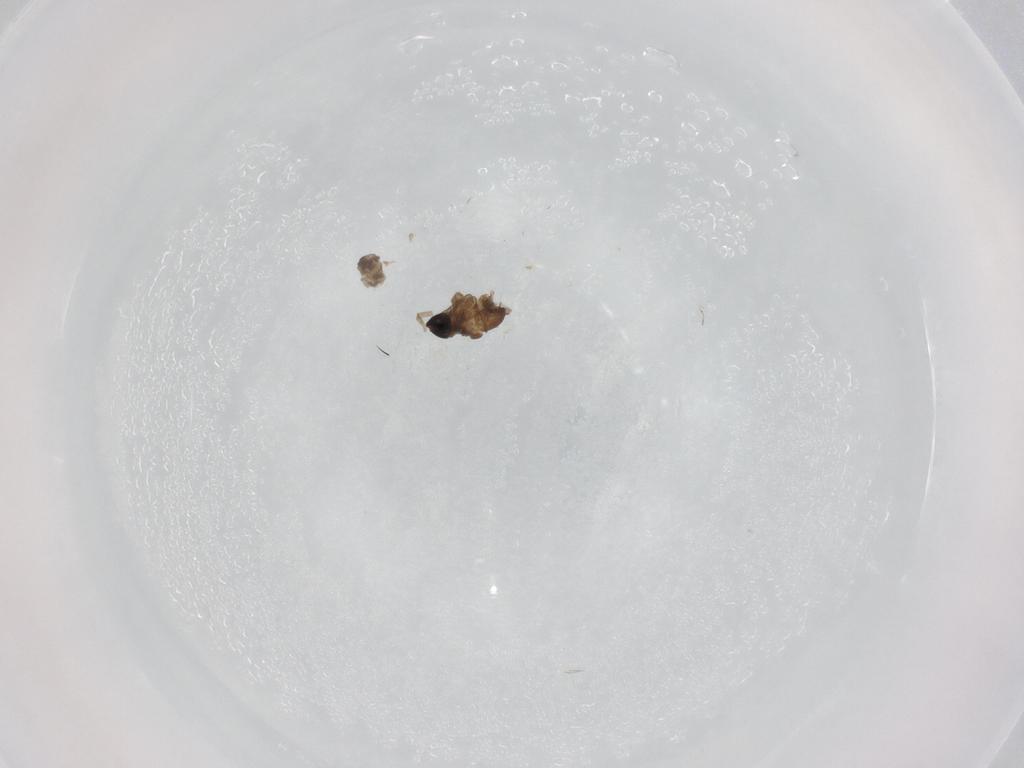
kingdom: Animalia
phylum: Arthropoda
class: Insecta
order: Diptera
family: Calliphoridae
